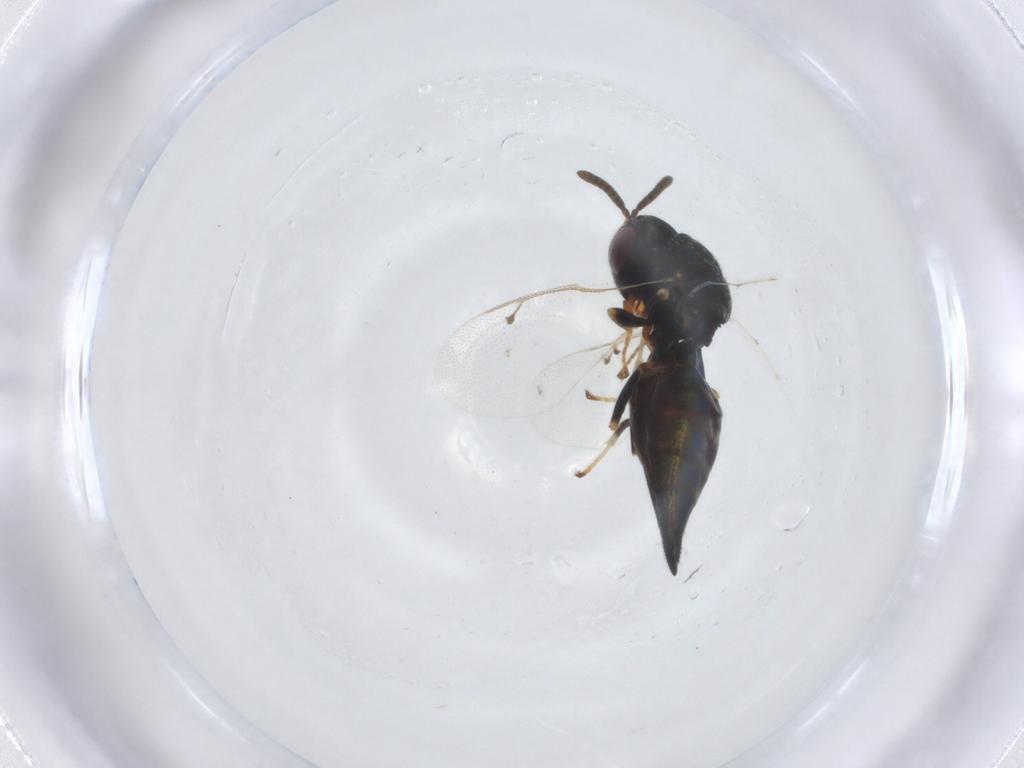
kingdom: Animalia
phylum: Arthropoda
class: Insecta
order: Hymenoptera
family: Pteromalidae
